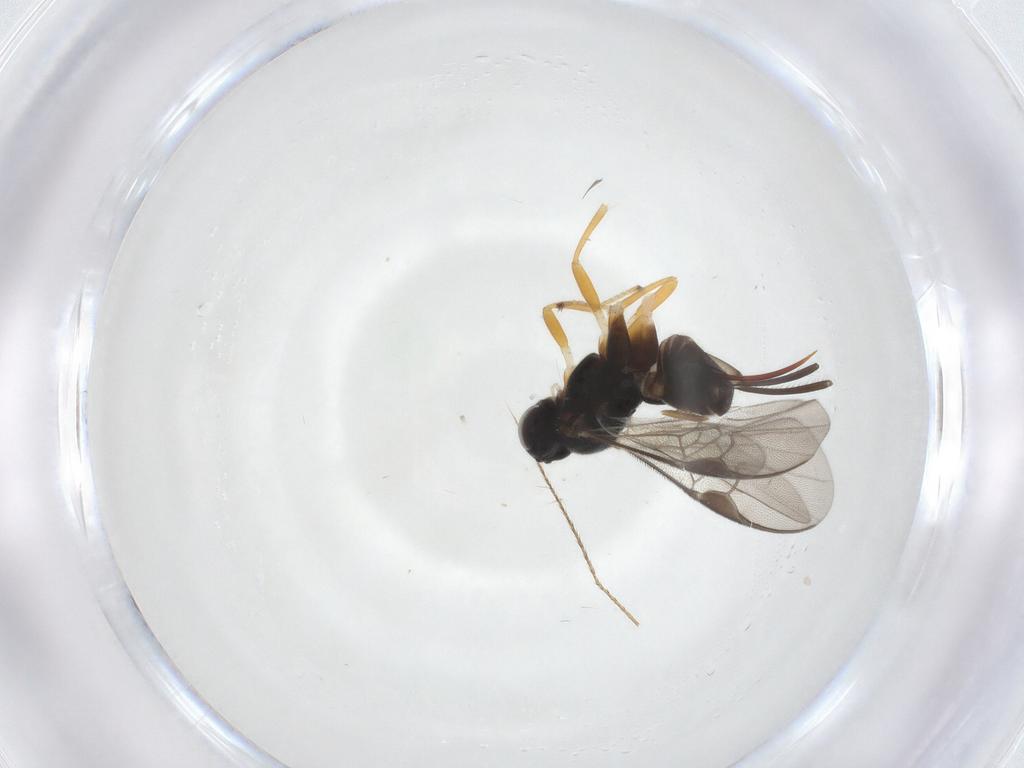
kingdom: Animalia
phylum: Arthropoda
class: Insecta
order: Hymenoptera
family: Braconidae
